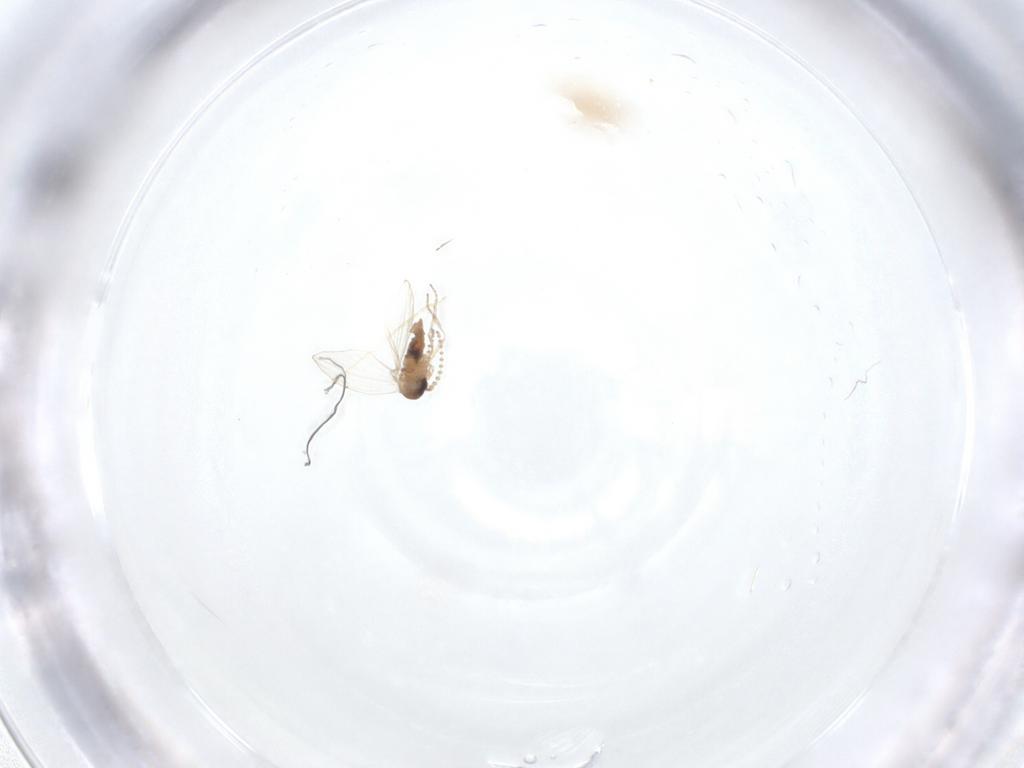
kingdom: Animalia
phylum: Arthropoda
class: Insecta
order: Diptera
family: Psychodidae
